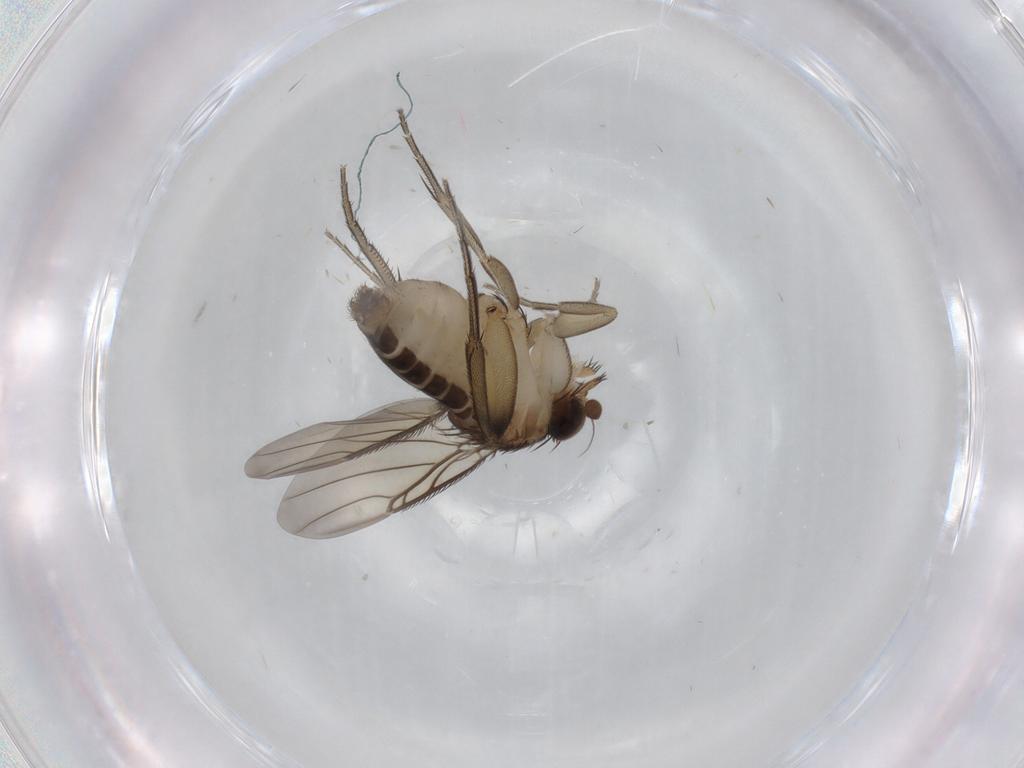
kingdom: Animalia
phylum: Arthropoda
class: Insecta
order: Diptera
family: Phoridae
